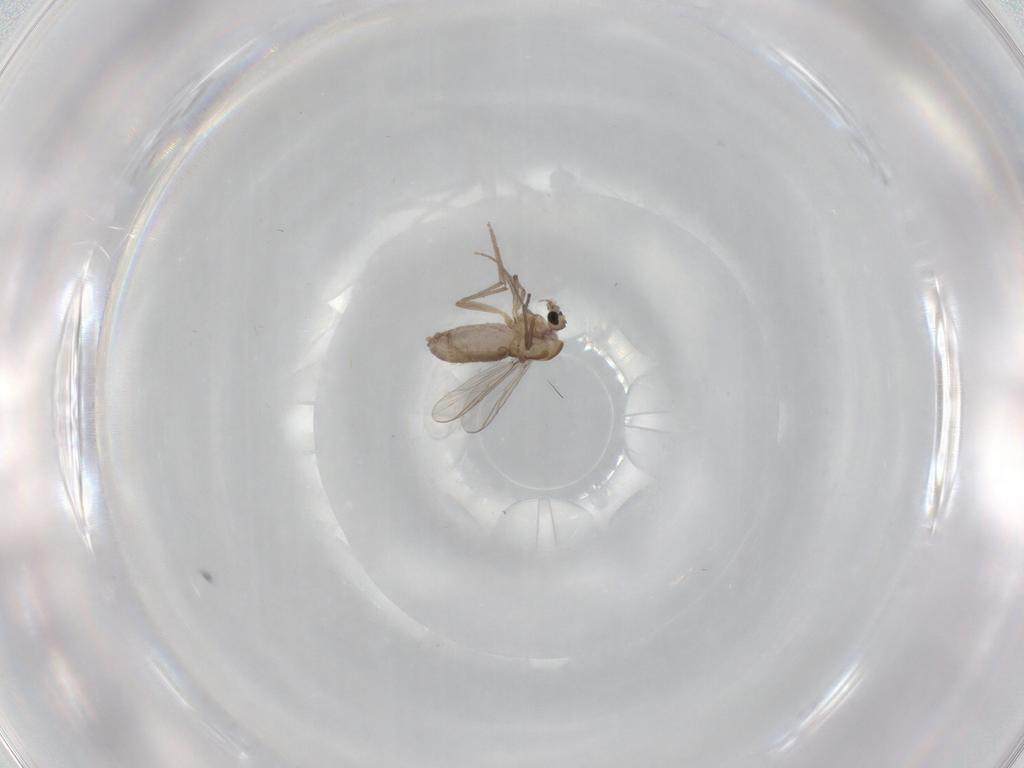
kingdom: Animalia
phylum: Arthropoda
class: Insecta
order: Diptera
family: Chironomidae
